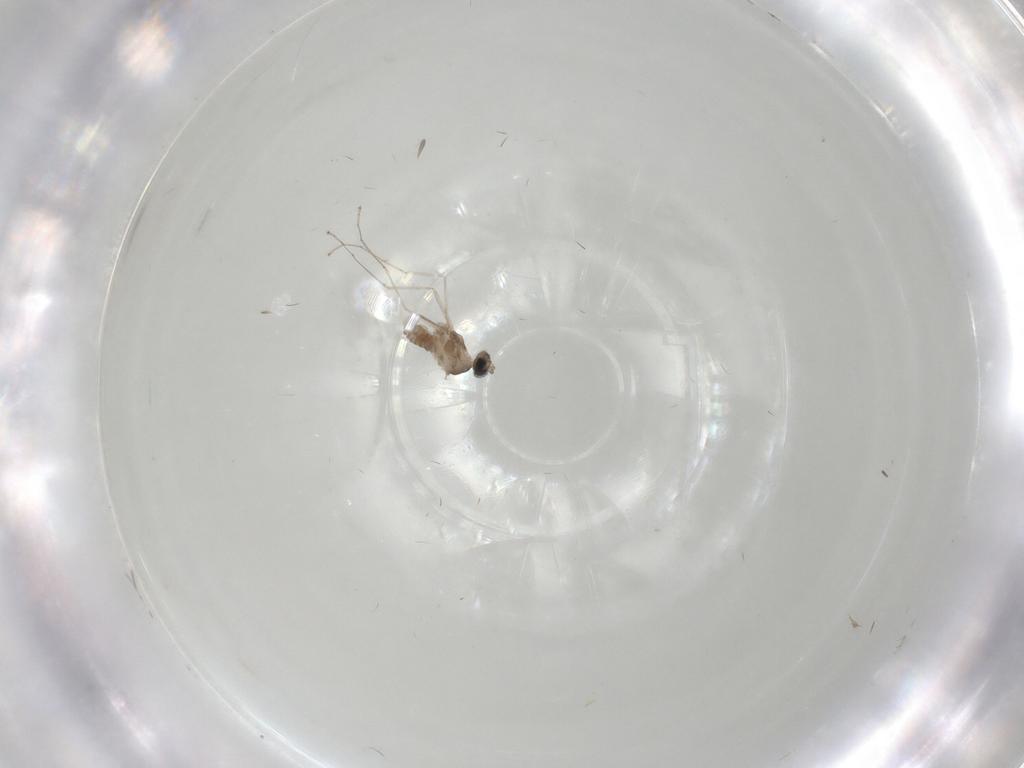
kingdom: Animalia
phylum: Arthropoda
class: Insecta
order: Diptera
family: Cecidomyiidae
